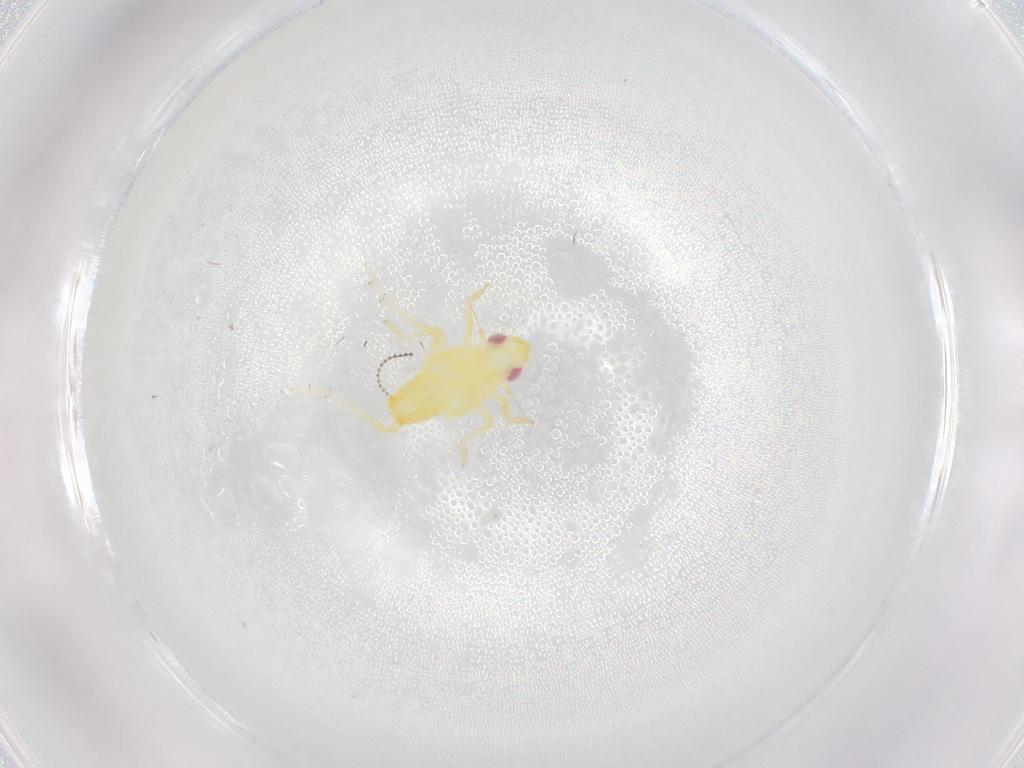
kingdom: Animalia
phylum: Arthropoda
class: Insecta
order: Hemiptera
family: Fulgoroidea_incertae_sedis
